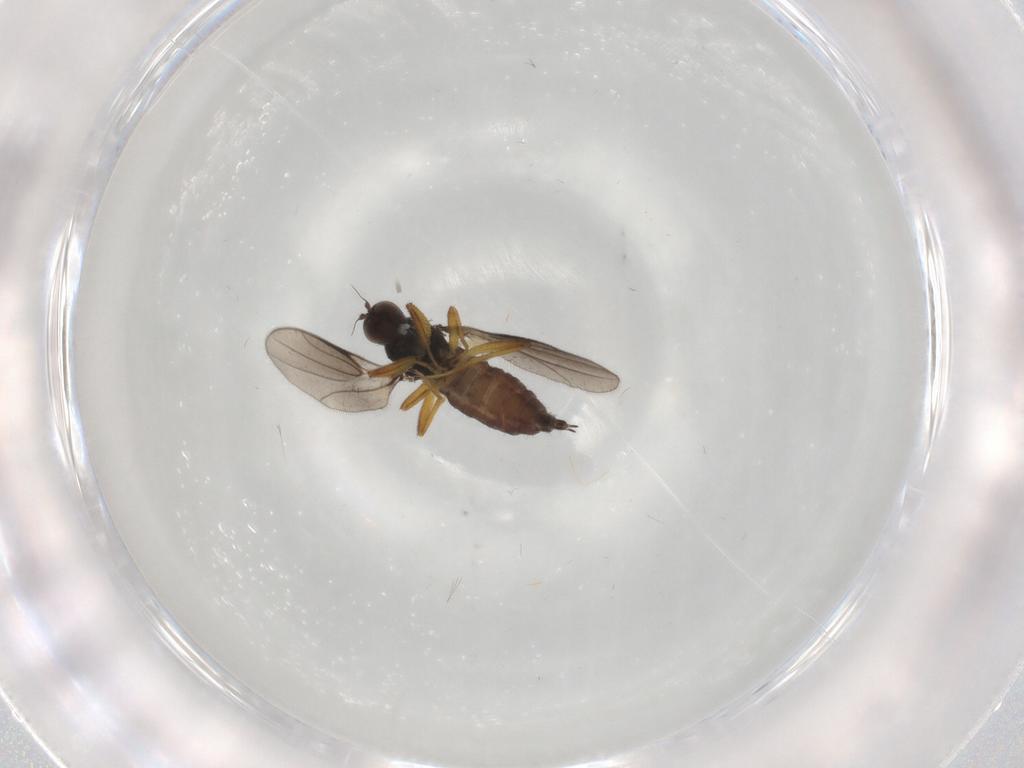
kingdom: Animalia
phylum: Arthropoda
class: Insecta
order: Diptera
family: Hybotidae
